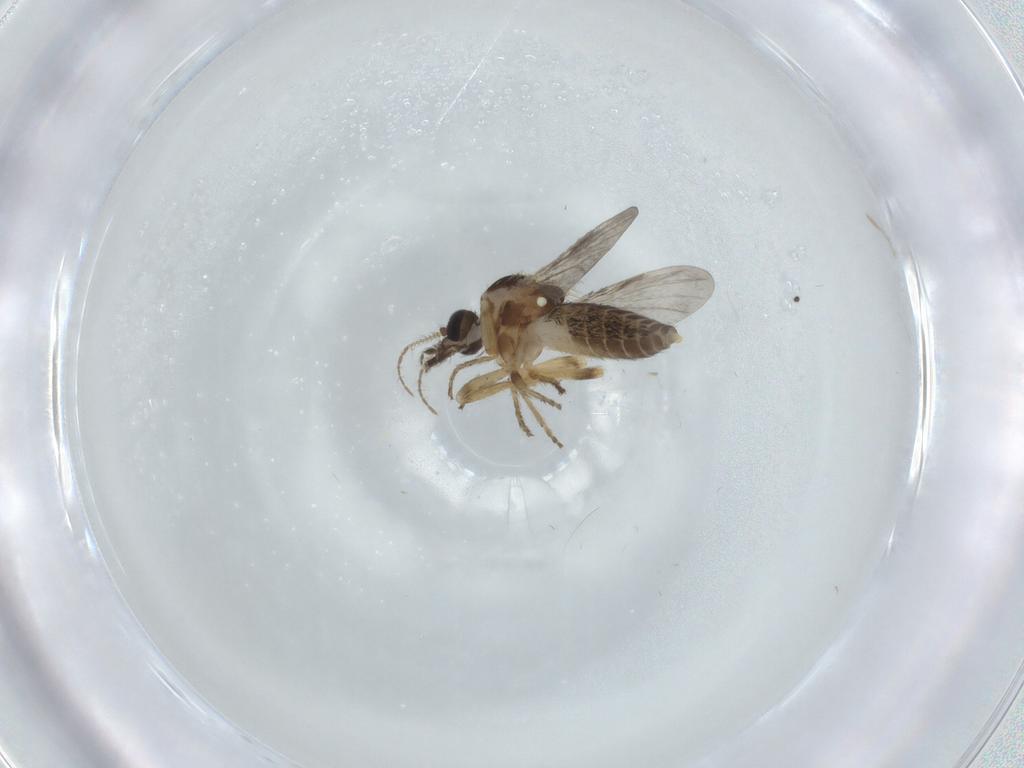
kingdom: Animalia
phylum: Arthropoda
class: Insecta
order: Diptera
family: Ceratopogonidae
